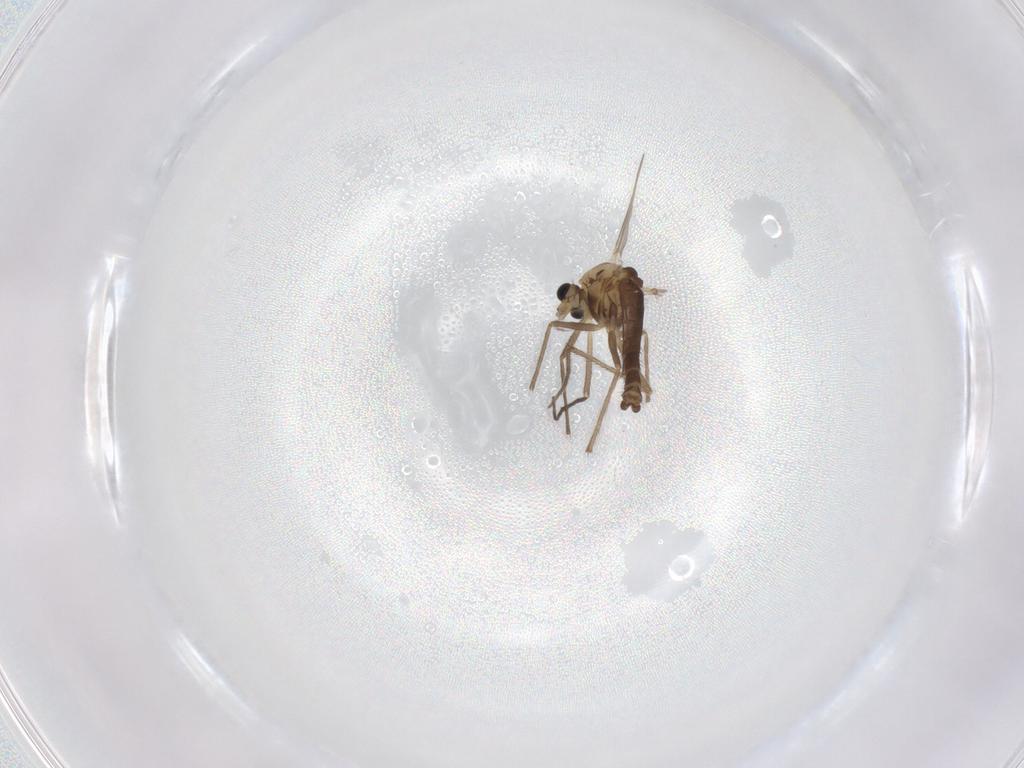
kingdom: Animalia
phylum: Arthropoda
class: Insecta
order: Diptera
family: Chironomidae
